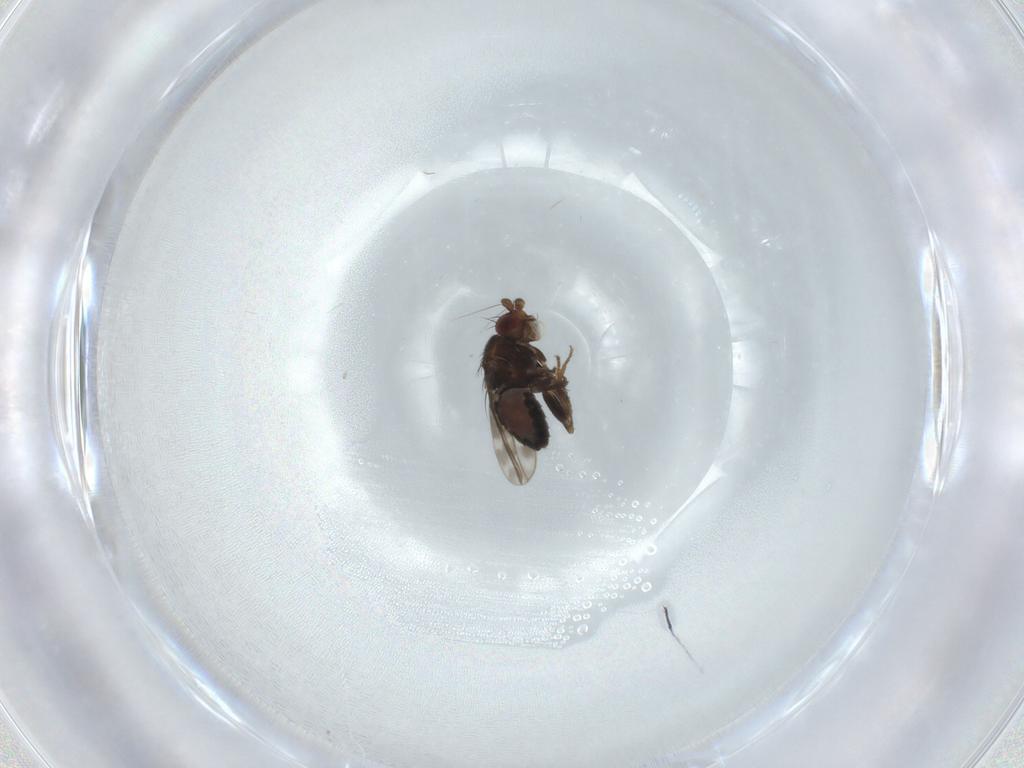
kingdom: Animalia
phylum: Arthropoda
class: Insecta
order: Diptera
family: Sphaeroceridae
